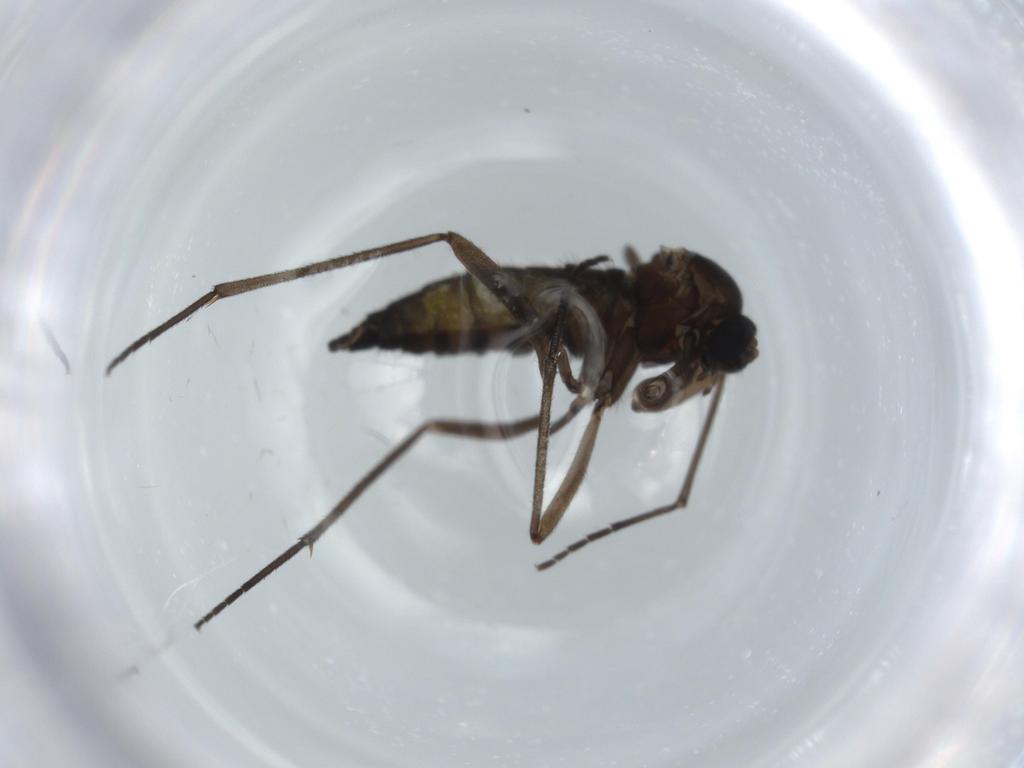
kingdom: Animalia
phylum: Arthropoda
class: Insecta
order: Diptera
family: Sciaridae
